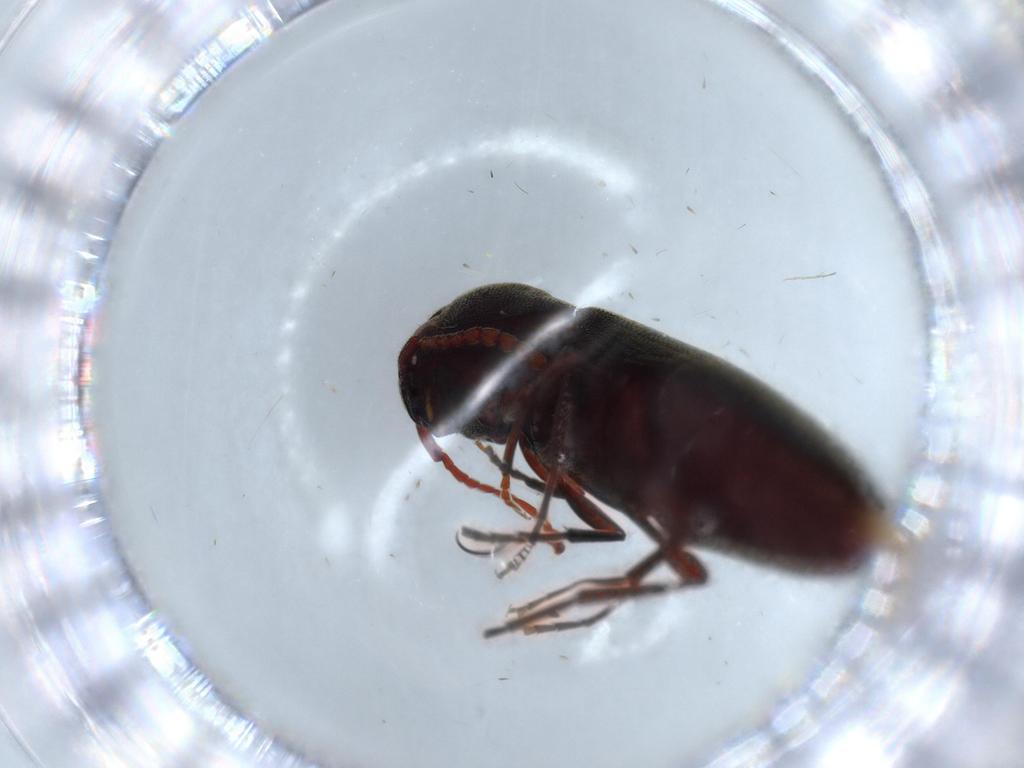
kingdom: Animalia
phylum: Arthropoda
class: Insecta
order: Coleoptera
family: Eucnemidae
